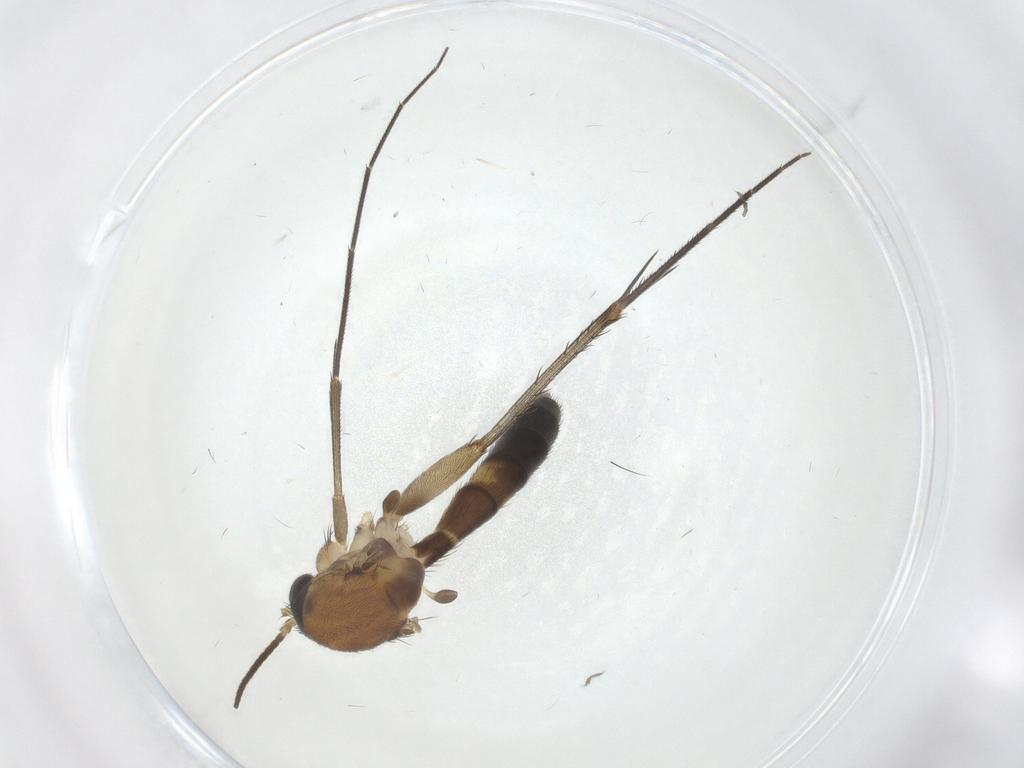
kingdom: Animalia
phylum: Arthropoda
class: Insecta
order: Diptera
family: Mycetophilidae
